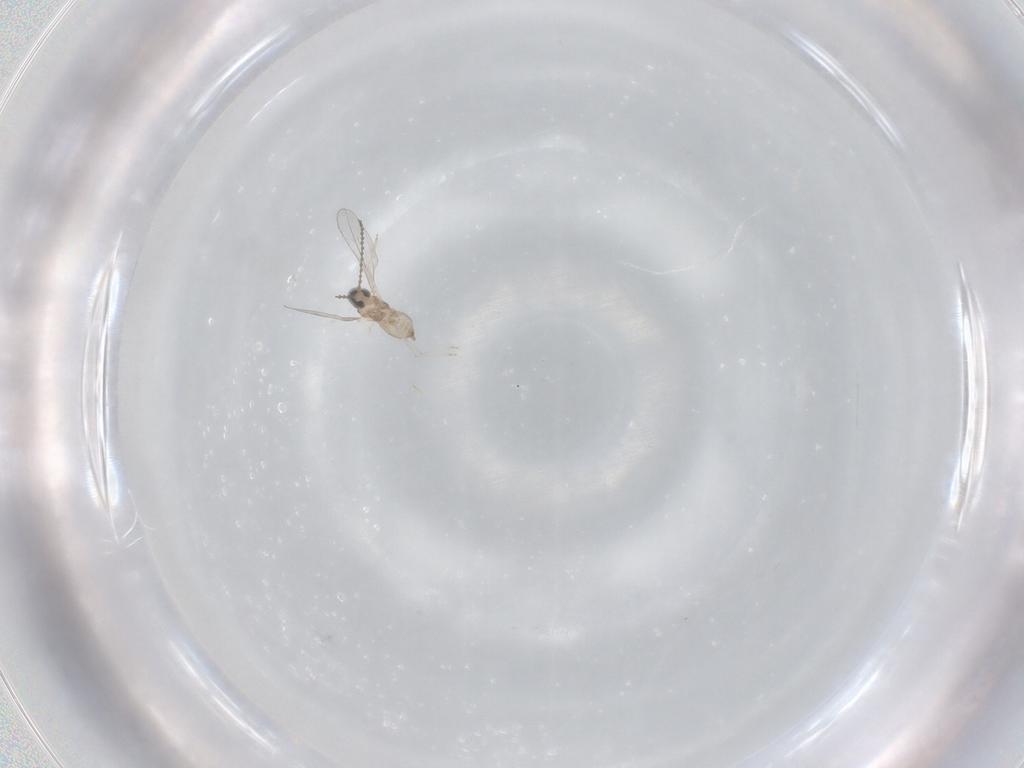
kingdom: Animalia
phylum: Arthropoda
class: Insecta
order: Diptera
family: Cecidomyiidae
